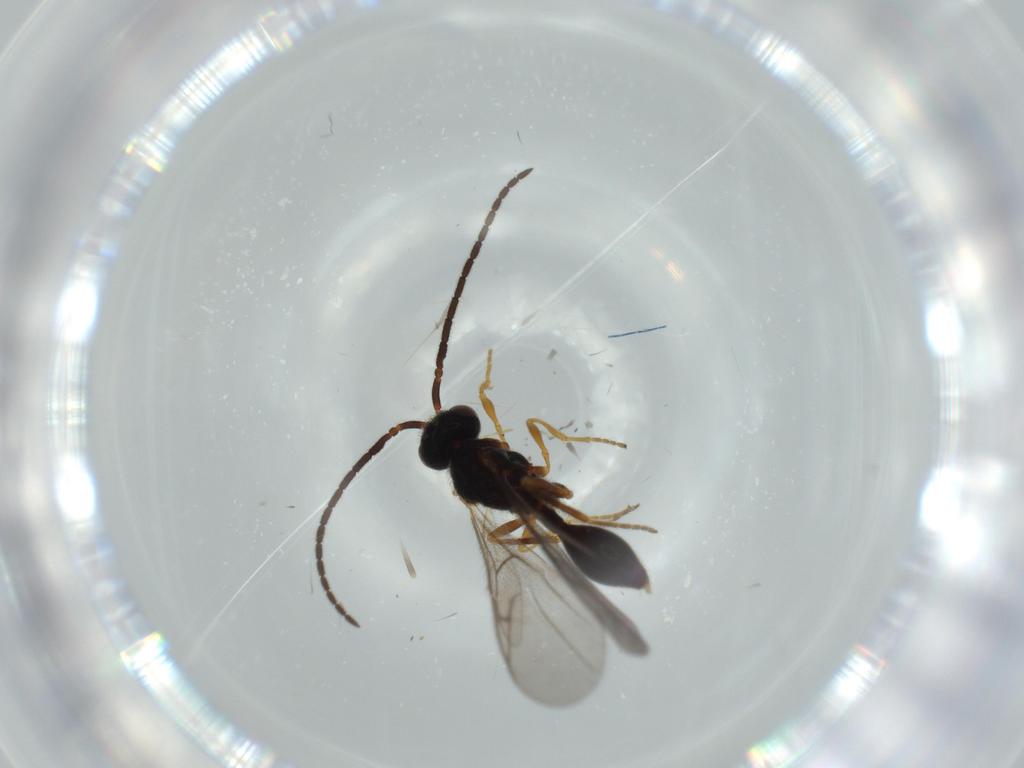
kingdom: Animalia
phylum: Arthropoda
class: Insecta
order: Hymenoptera
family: Diapriidae
